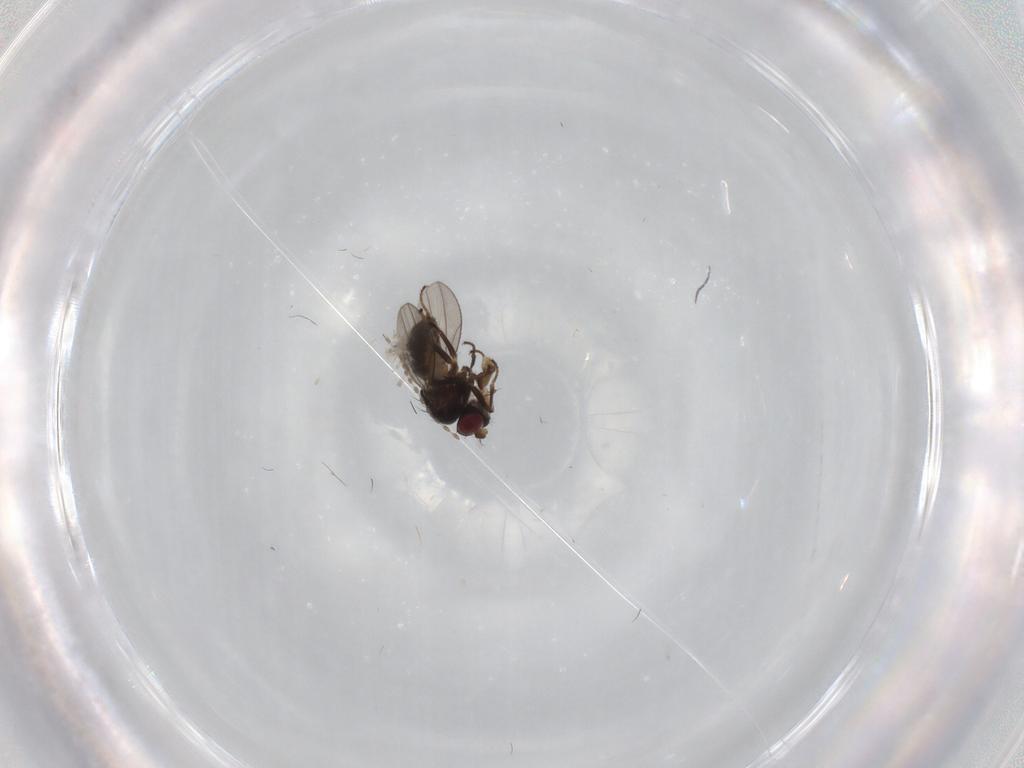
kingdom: Animalia
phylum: Arthropoda
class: Insecta
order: Diptera
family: Ephydridae
